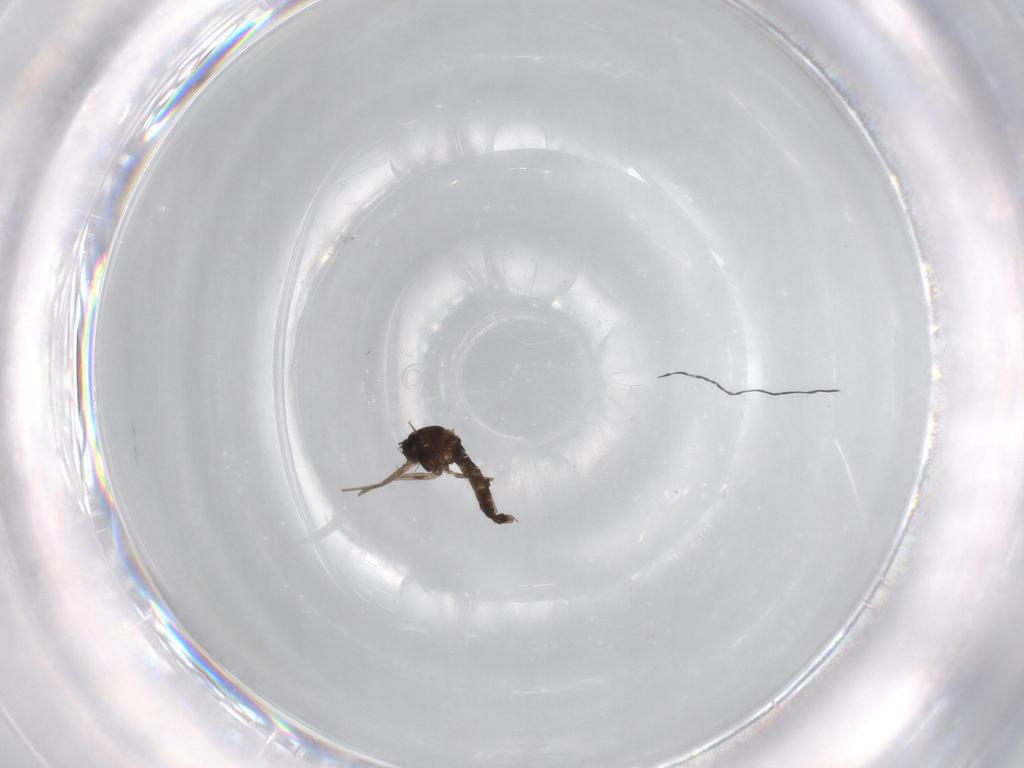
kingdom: Animalia
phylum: Arthropoda
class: Insecta
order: Diptera
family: Chironomidae
